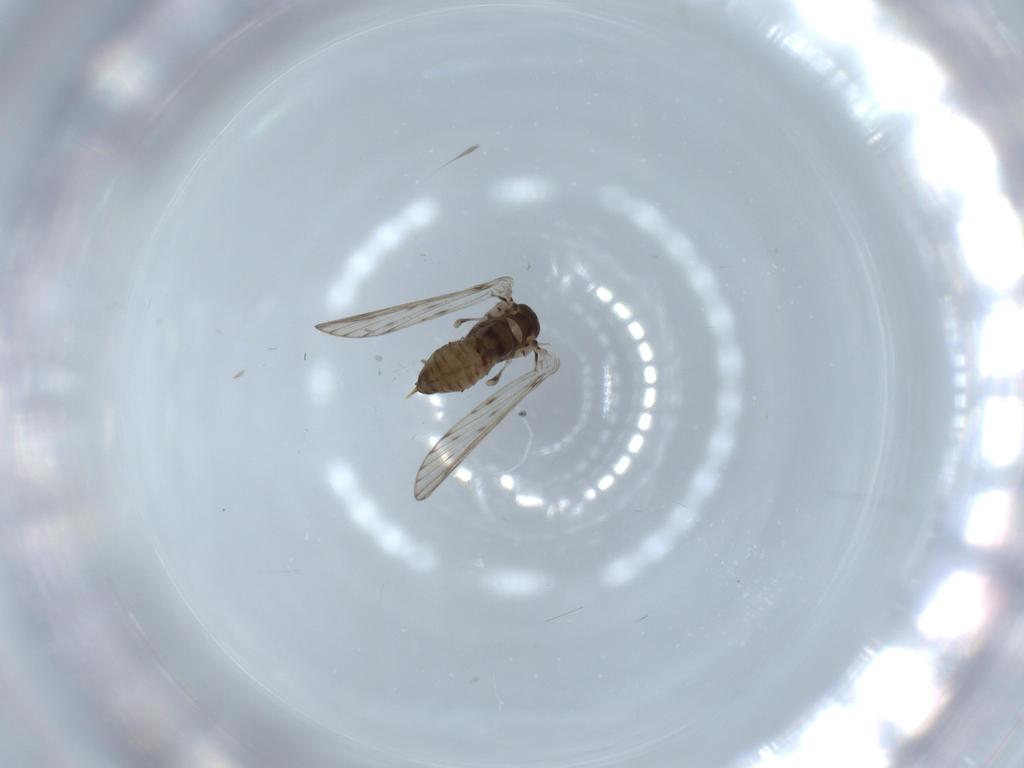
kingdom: Animalia
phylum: Arthropoda
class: Insecta
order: Diptera
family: Psychodidae
